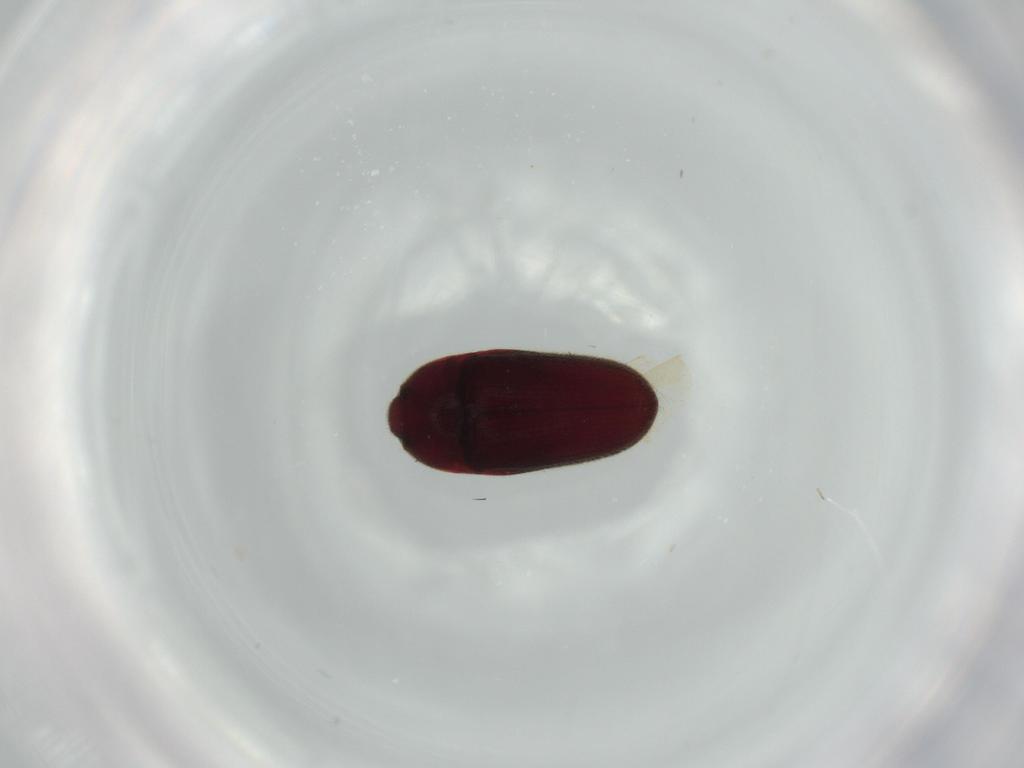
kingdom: Animalia
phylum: Arthropoda
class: Insecta
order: Coleoptera
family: Throscidae
